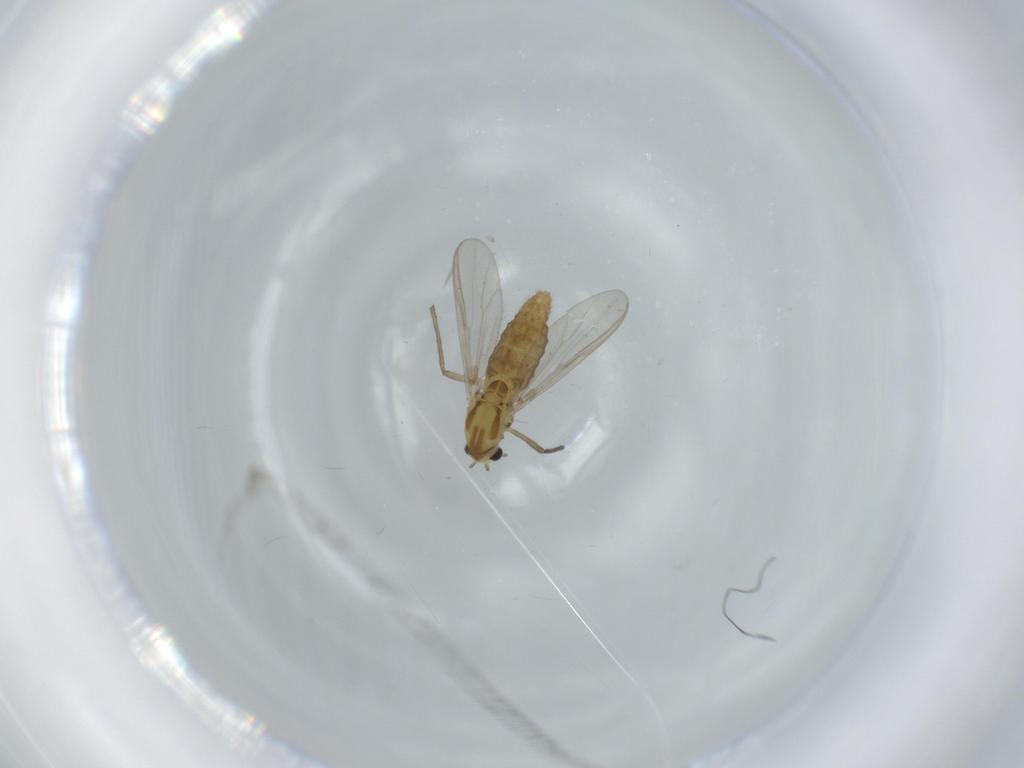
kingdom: Animalia
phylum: Arthropoda
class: Insecta
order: Diptera
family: Chironomidae
